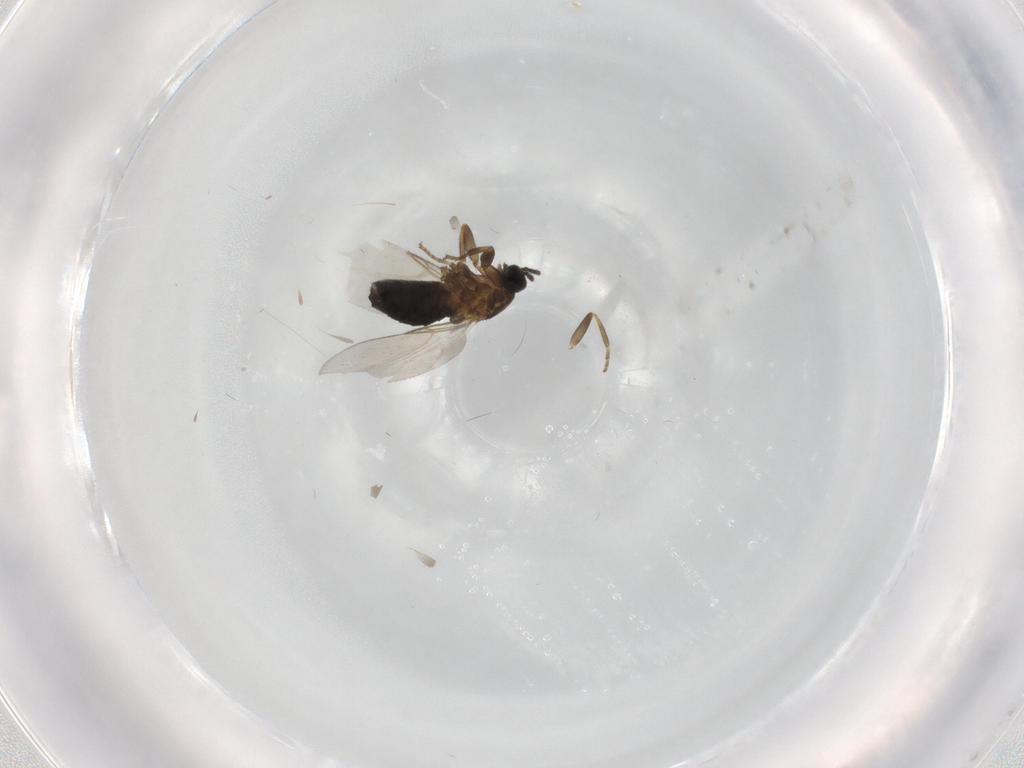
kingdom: Animalia
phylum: Arthropoda
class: Insecta
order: Diptera
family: Scatopsidae
